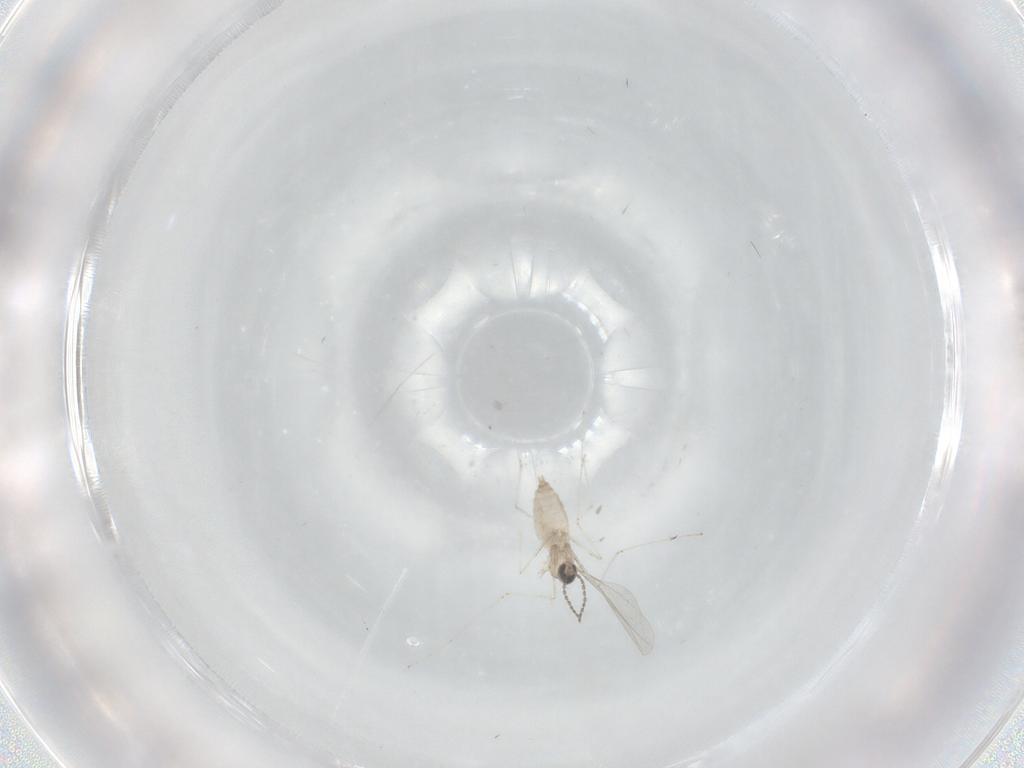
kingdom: Animalia
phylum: Arthropoda
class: Insecta
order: Diptera
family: Cecidomyiidae
